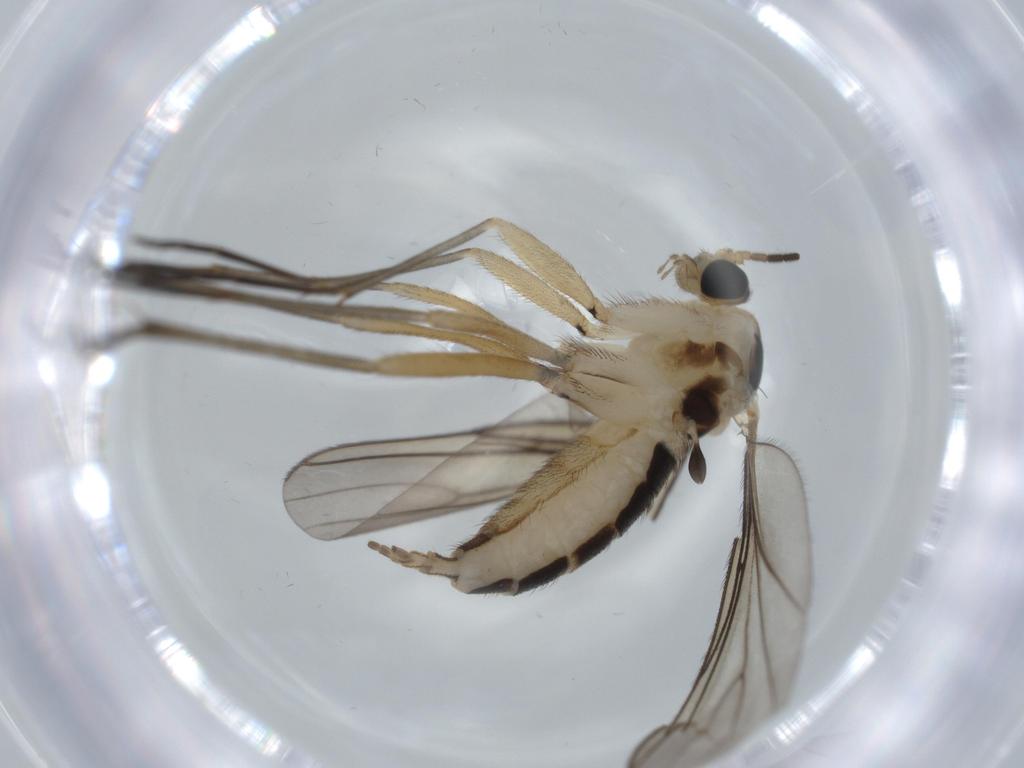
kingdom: Animalia
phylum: Arthropoda
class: Insecta
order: Diptera
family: Sciaridae
